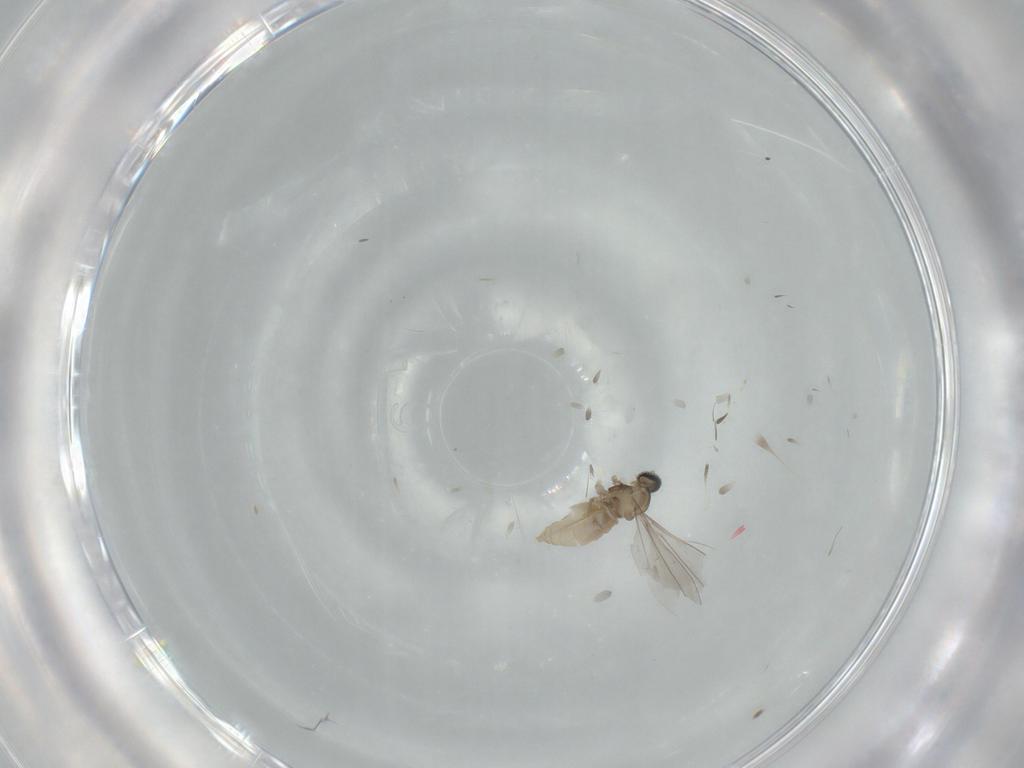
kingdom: Animalia
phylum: Arthropoda
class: Insecta
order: Diptera
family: Cecidomyiidae
